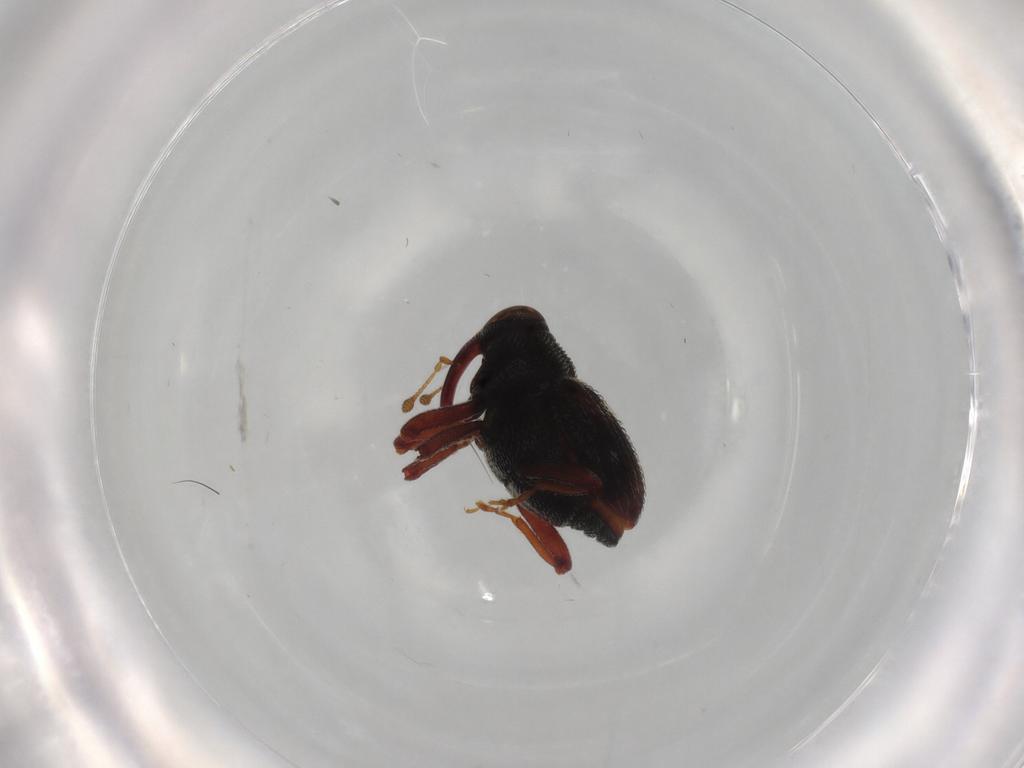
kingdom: Animalia
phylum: Arthropoda
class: Insecta
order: Coleoptera
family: Curculionidae
